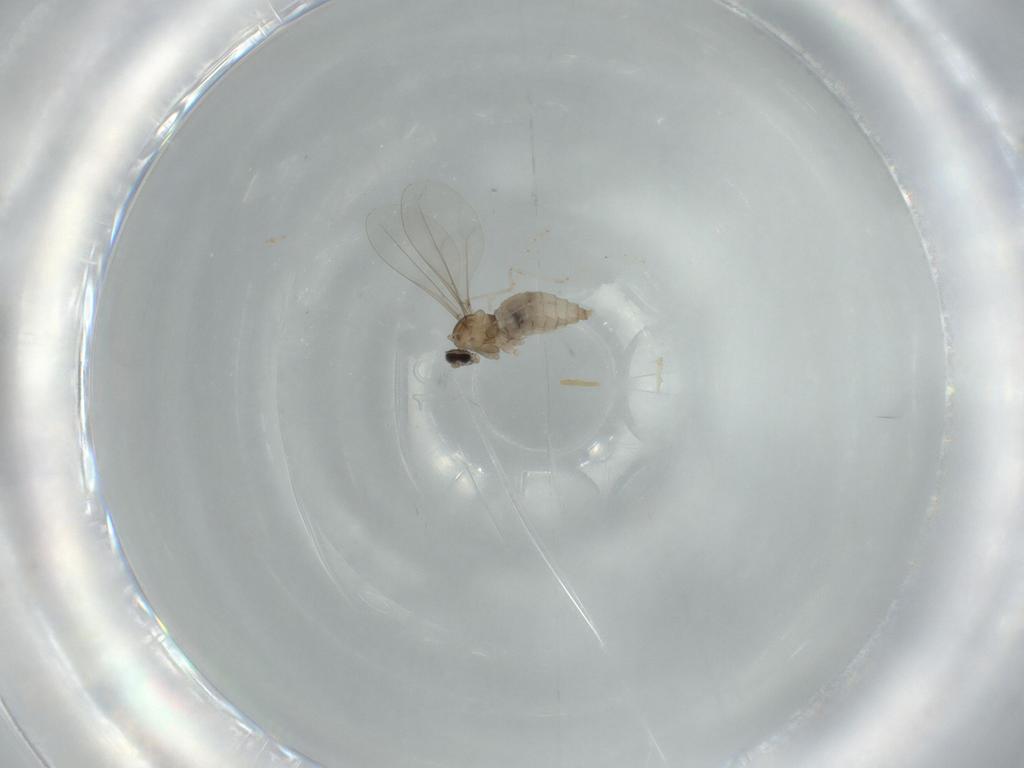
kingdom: Animalia
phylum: Arthropoda
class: Insecta
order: Diptera
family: Cecidomyiidae
